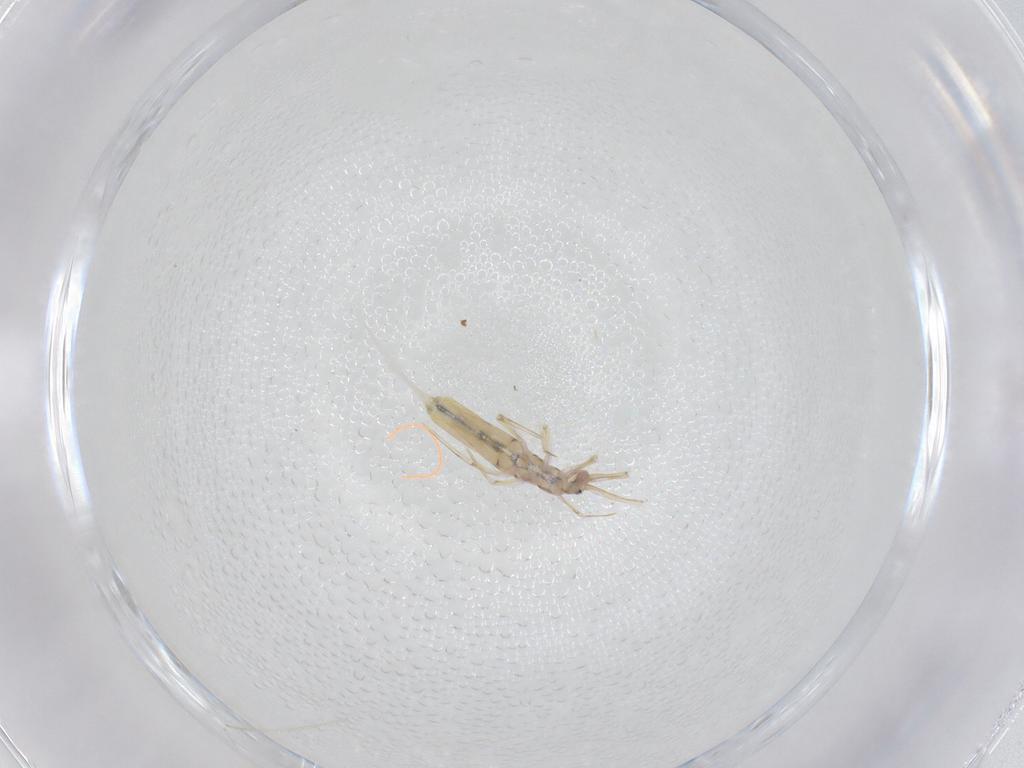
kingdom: Animalia
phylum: Arthropoda
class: Collembola
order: Entomobryomorpha
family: Entomobryidae
